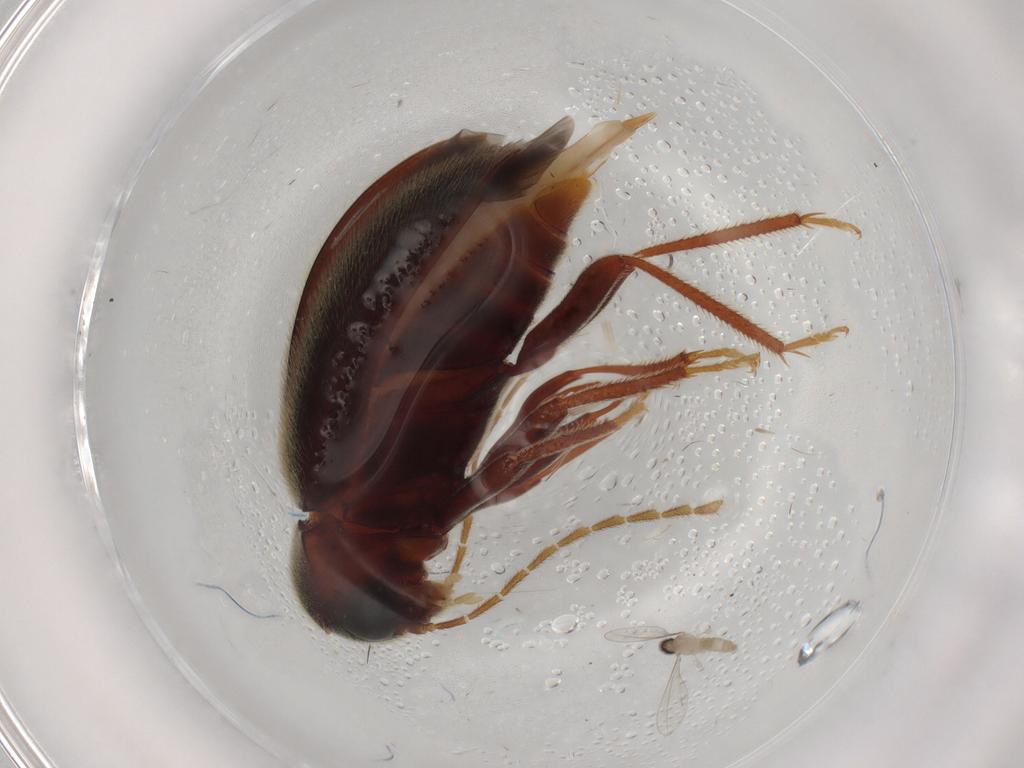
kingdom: Animalia
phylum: Arthropoda
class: Insecta
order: Coleoptera
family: Ptilodactylidae
